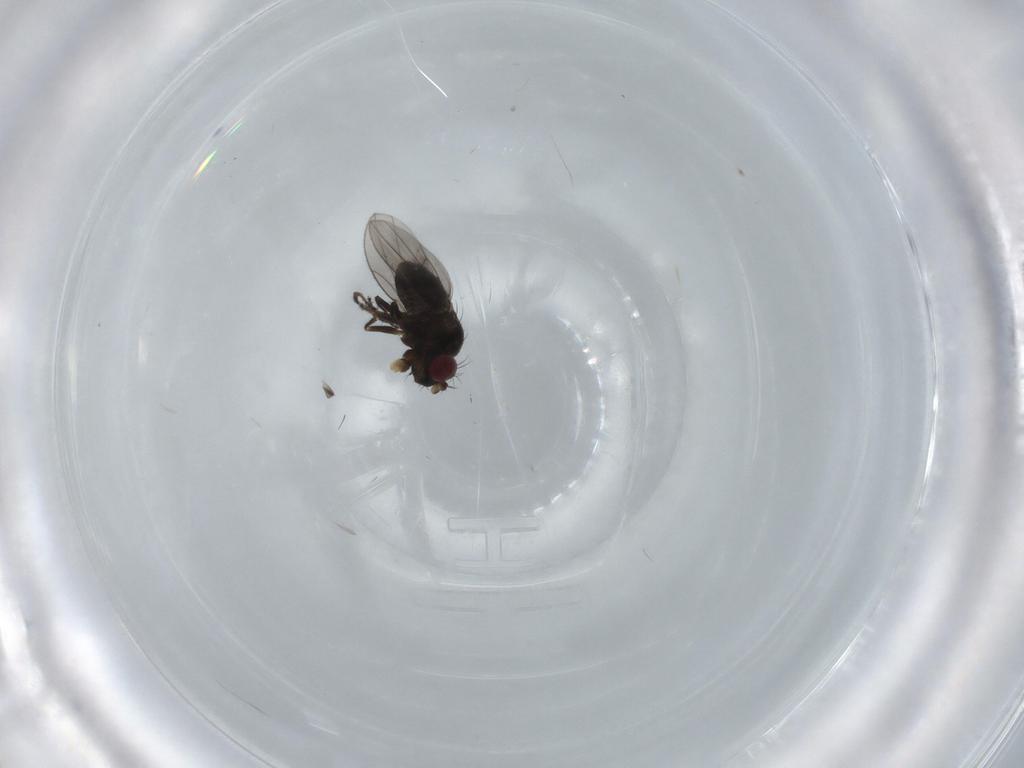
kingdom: Animalia
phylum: Arthropoda
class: Insecta
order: Diptera
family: Ephydridae
